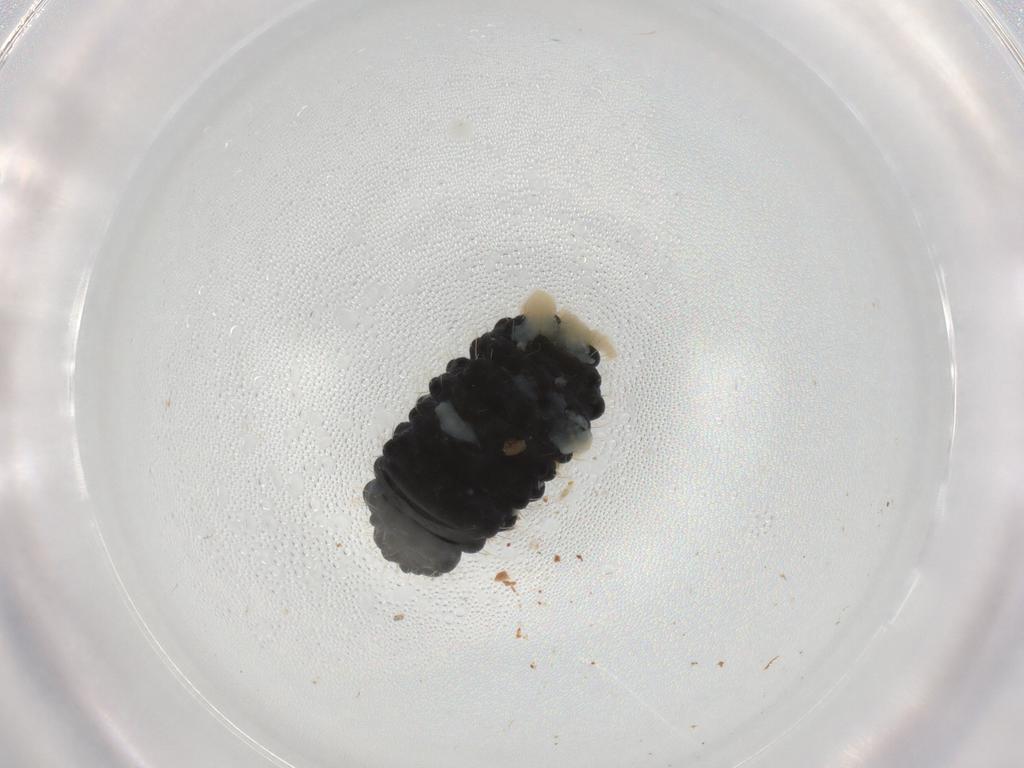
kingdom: Animalia
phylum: Arthropoda
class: Collembola
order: Poduromorpha
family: Neanuridae
